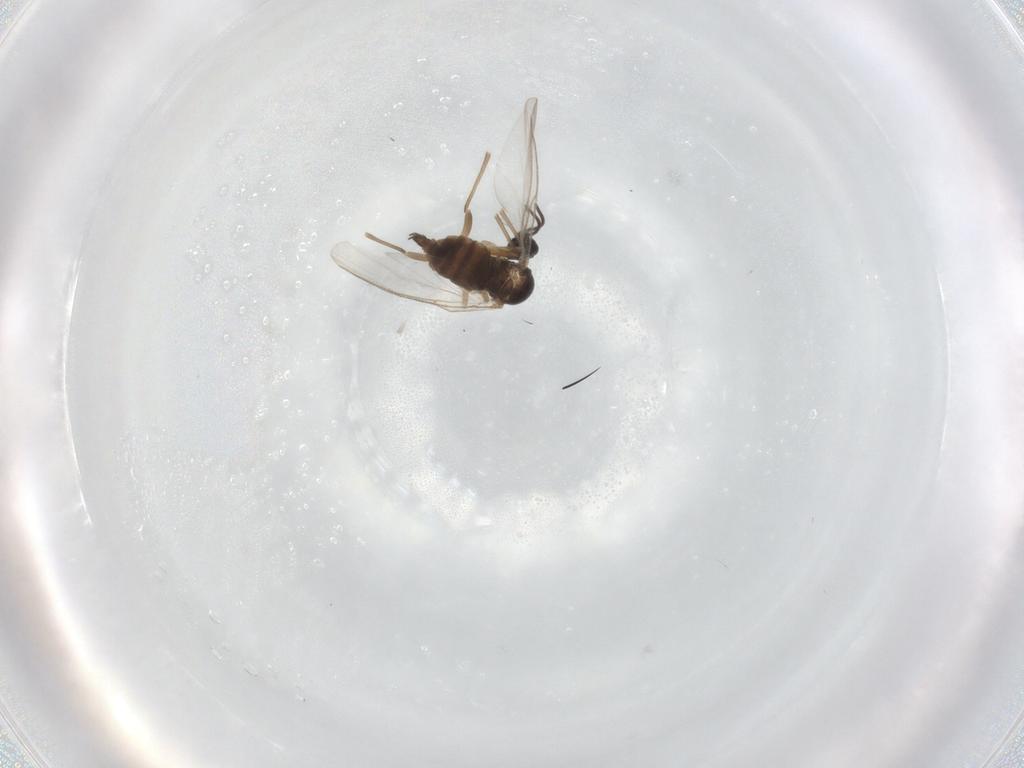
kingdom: Animalia
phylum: Arthropoda
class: Insecta
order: Diptera
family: Sciaridae
